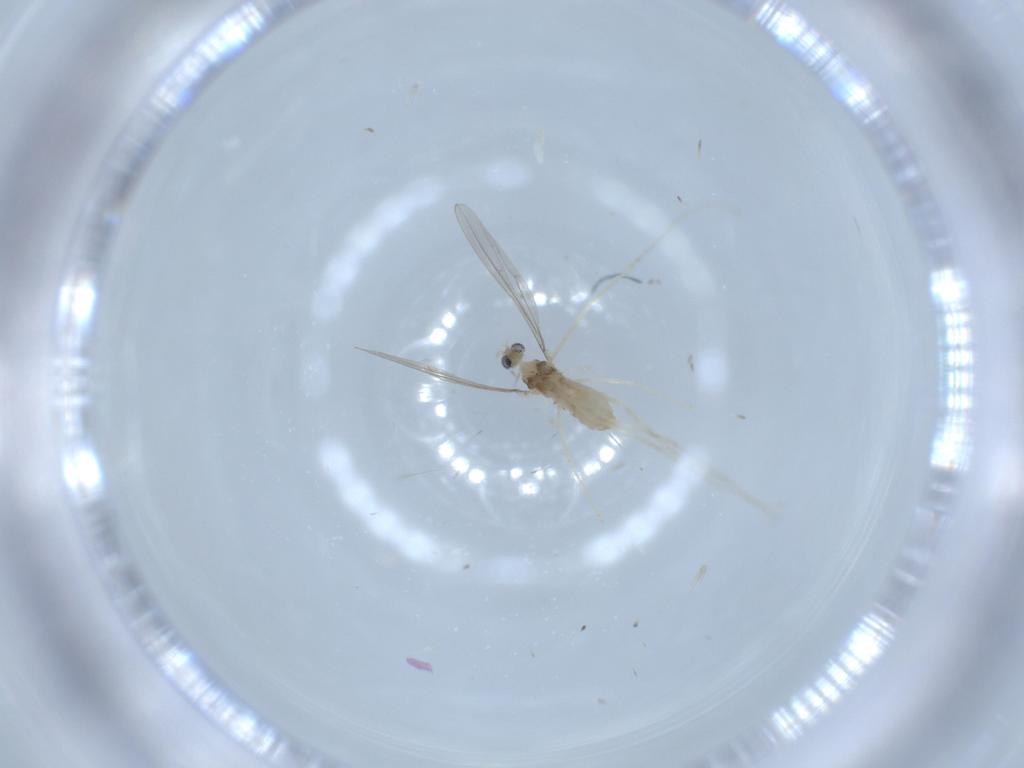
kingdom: Animalia
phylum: Arthropoda
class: Insecta
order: Diptera
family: Cecidomyiidae
